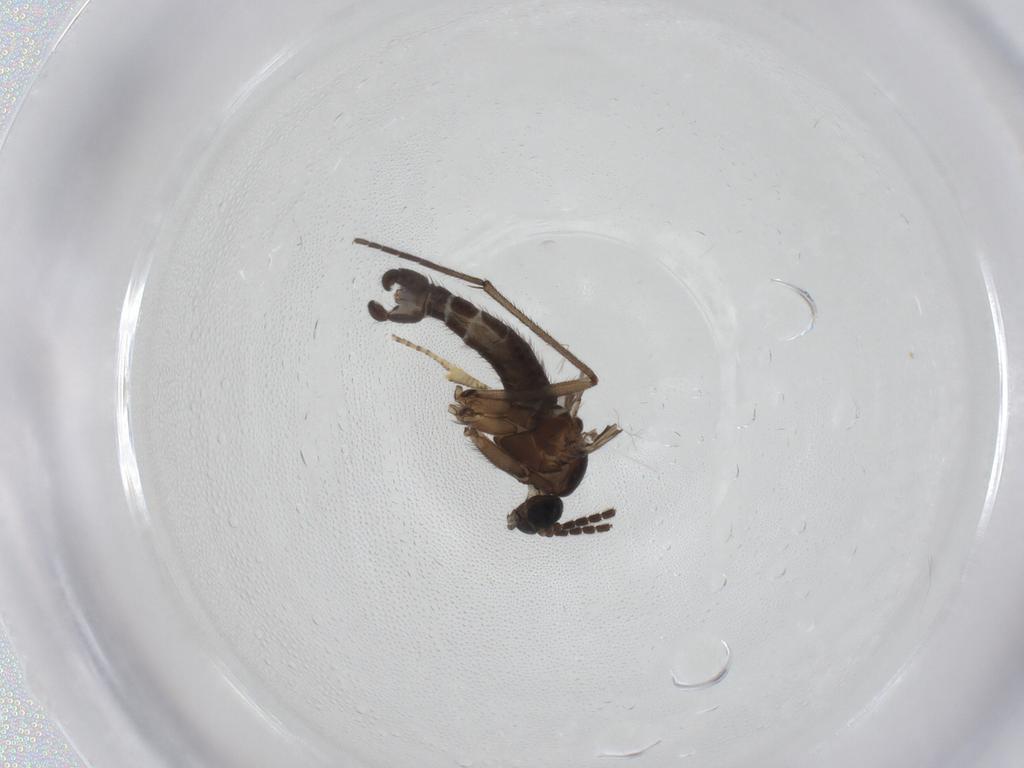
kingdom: Animalia
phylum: Arthropoda
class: Insecta
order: Diptera
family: Sciaridae
